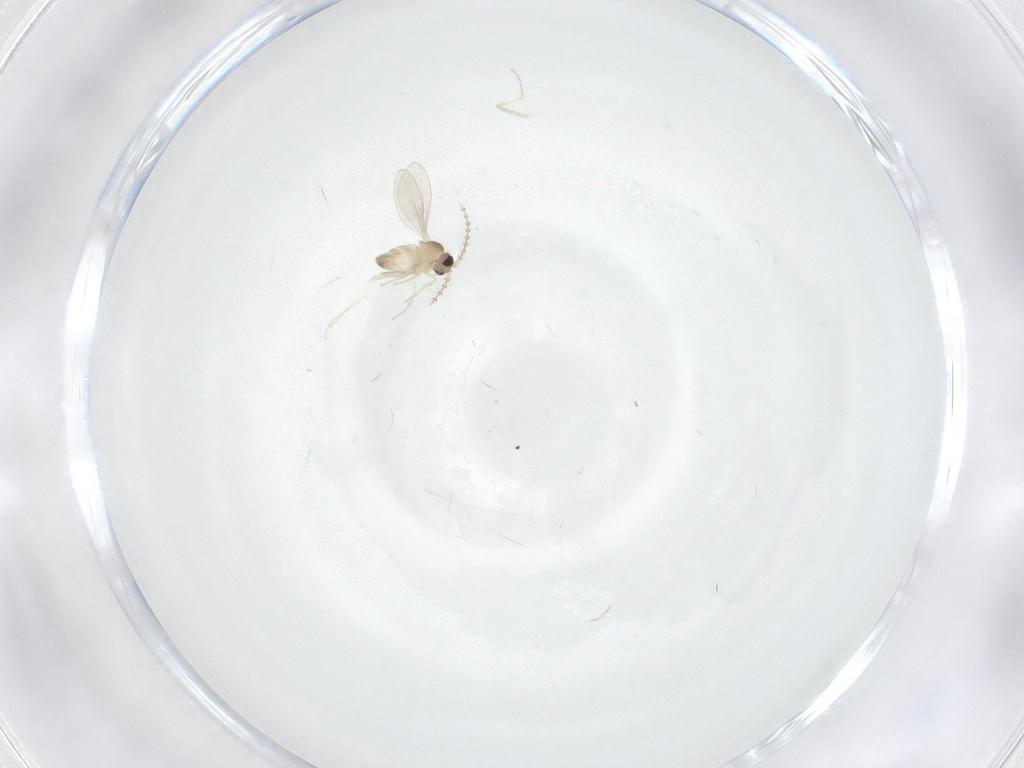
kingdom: Animalia
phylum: Arthropoda
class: Insecta
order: Diptera
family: Cecidomyiidae
